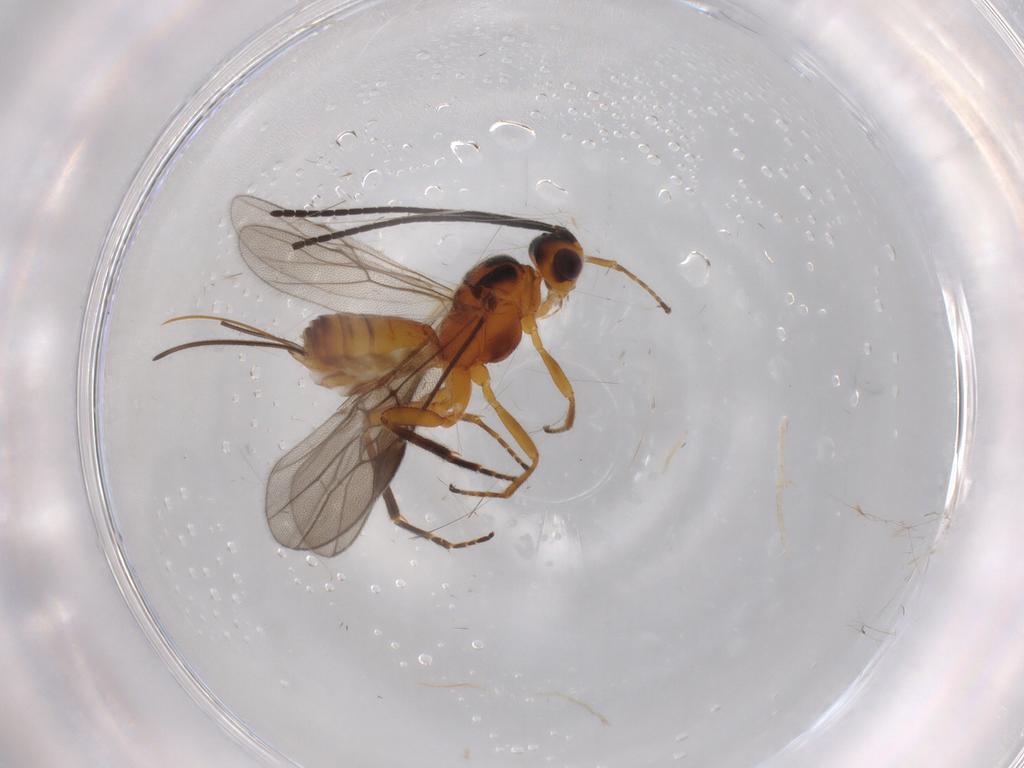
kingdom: Animalia
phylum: Arthropoda
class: Insecta
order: Hymenoptera
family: Braconidae
